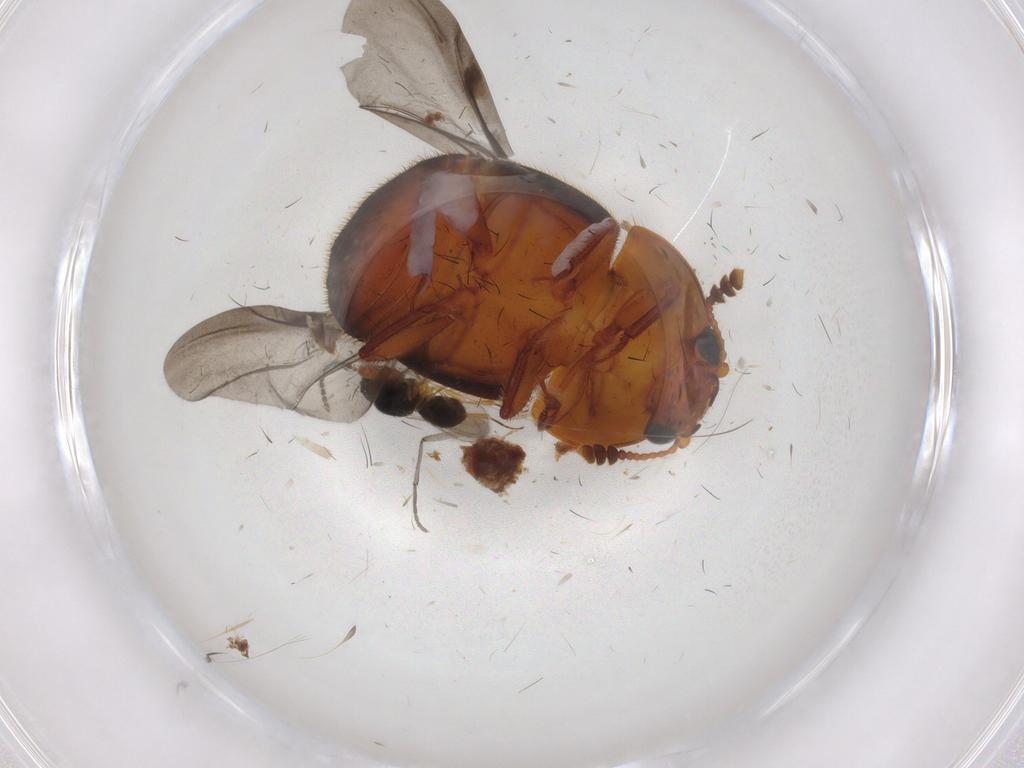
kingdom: Animalia
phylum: Arthropoda
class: Insecta
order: Coleoptera
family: Nitidulidae
